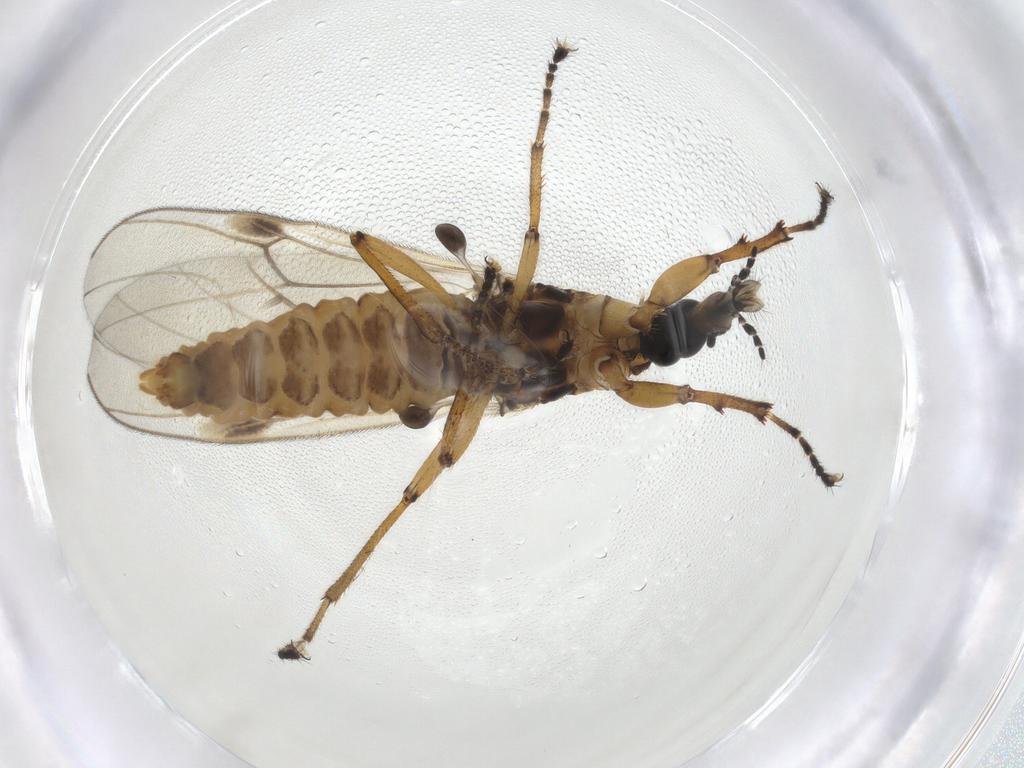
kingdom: Animalia
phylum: Arthropoda
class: Insecta
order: Diptera
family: Bibionidae
